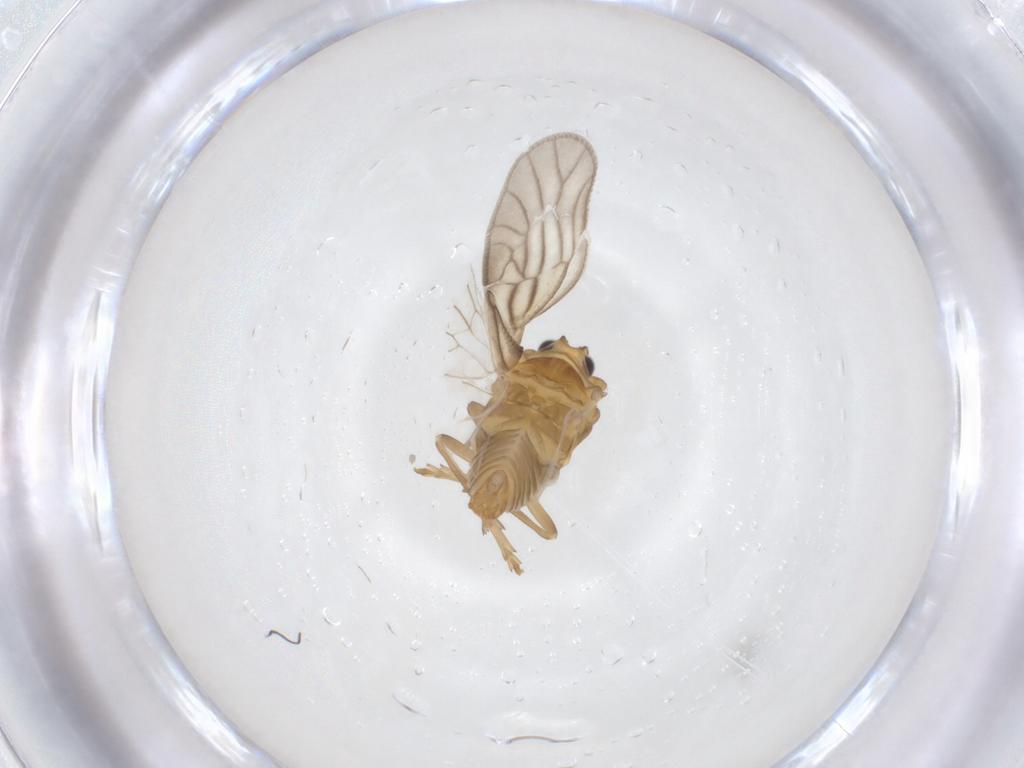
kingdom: Animalia
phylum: Arthropoda
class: Insecta
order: Hemiptera
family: Meenoplidae
